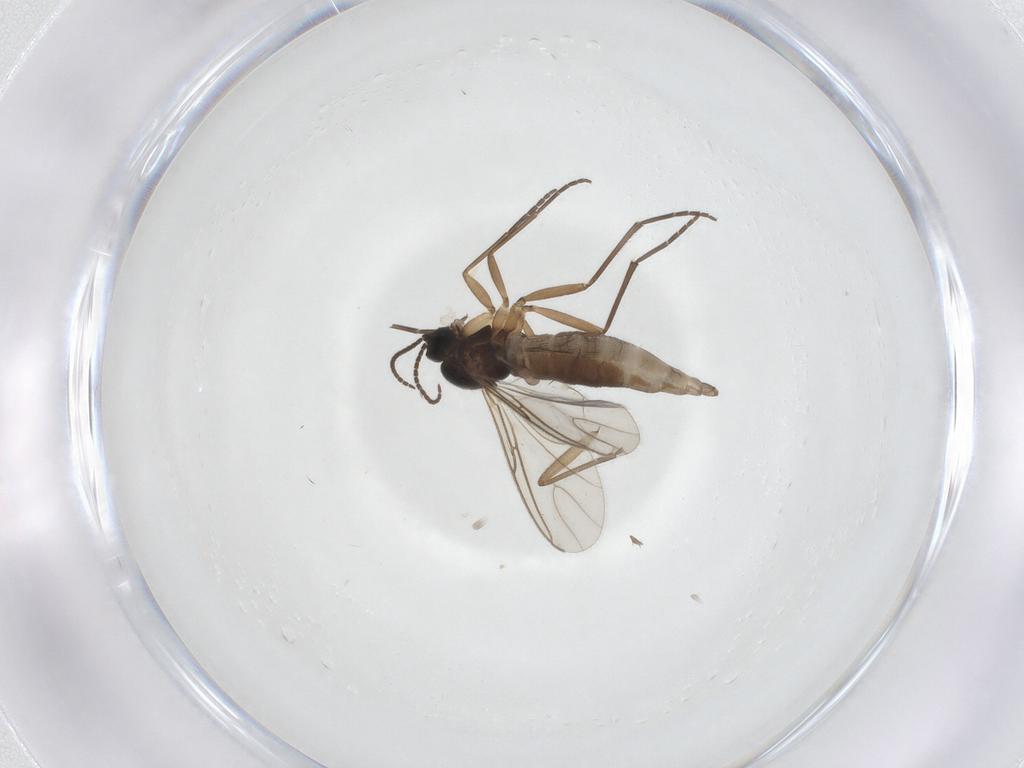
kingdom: Animalia
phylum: Arthropoda
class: Insecta
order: Diptera
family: Sciaridae
